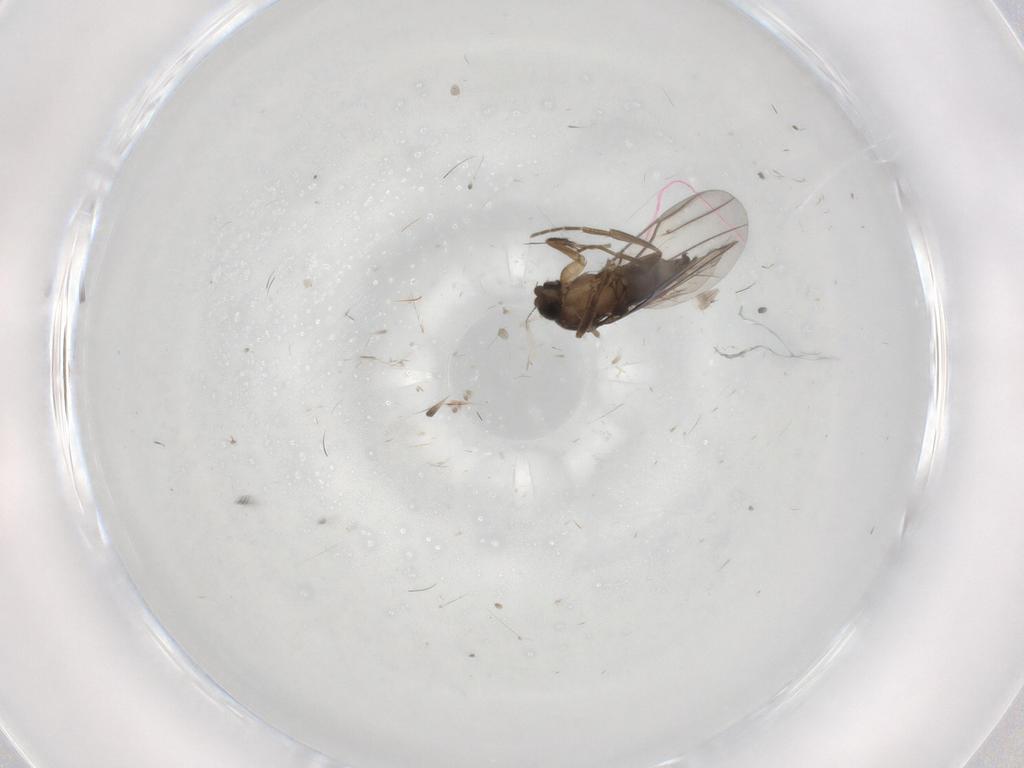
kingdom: Animalia
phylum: Arthropoda
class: Insecta
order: Diptera
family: Phoridae
